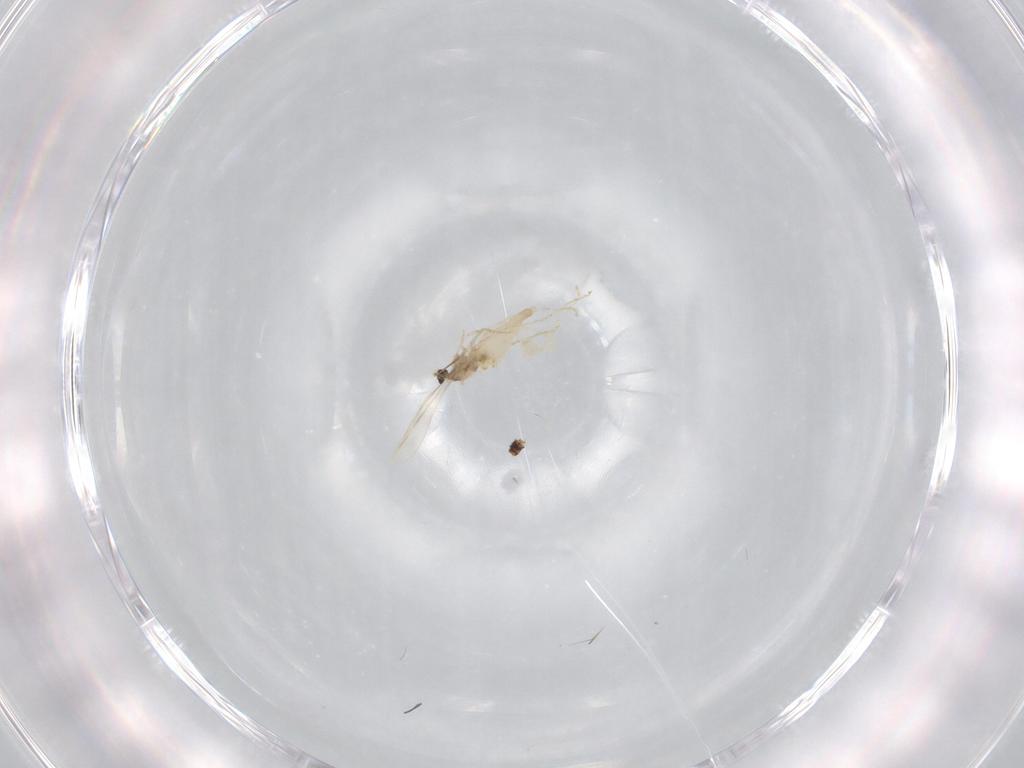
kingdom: Animalia
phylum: Arthropoda
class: Insecta
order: Diptera
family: Cecidomyiidae
